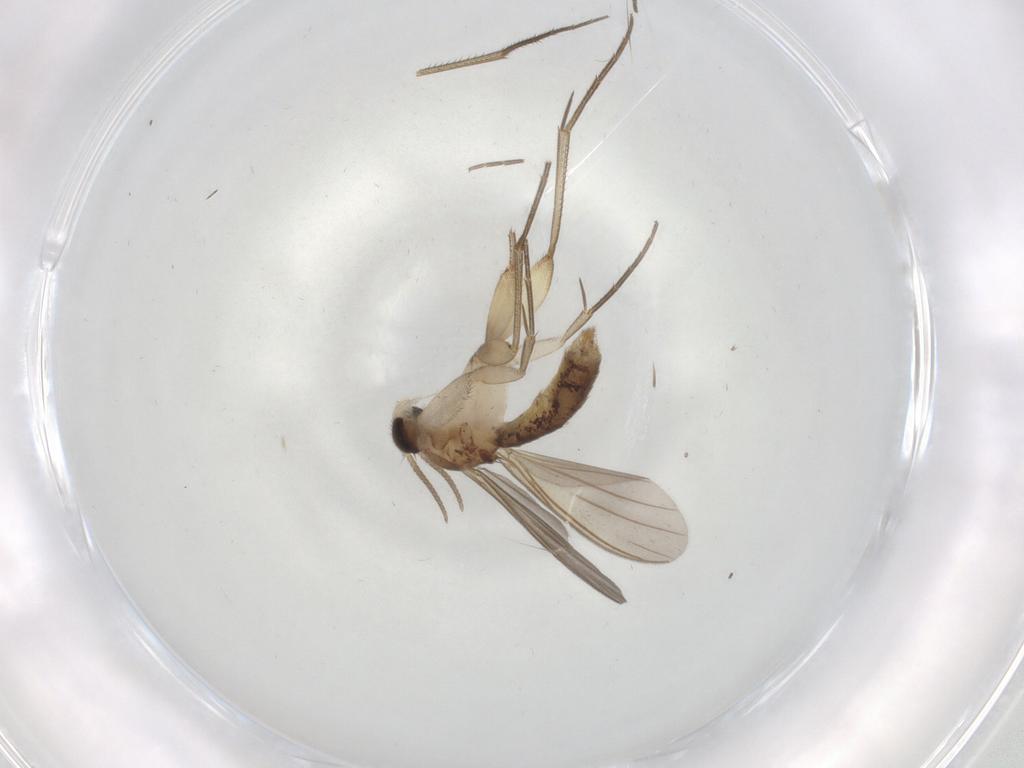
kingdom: Animalia
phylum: Arthropoda
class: Insecta
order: Diptera
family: Mycetophilidae
